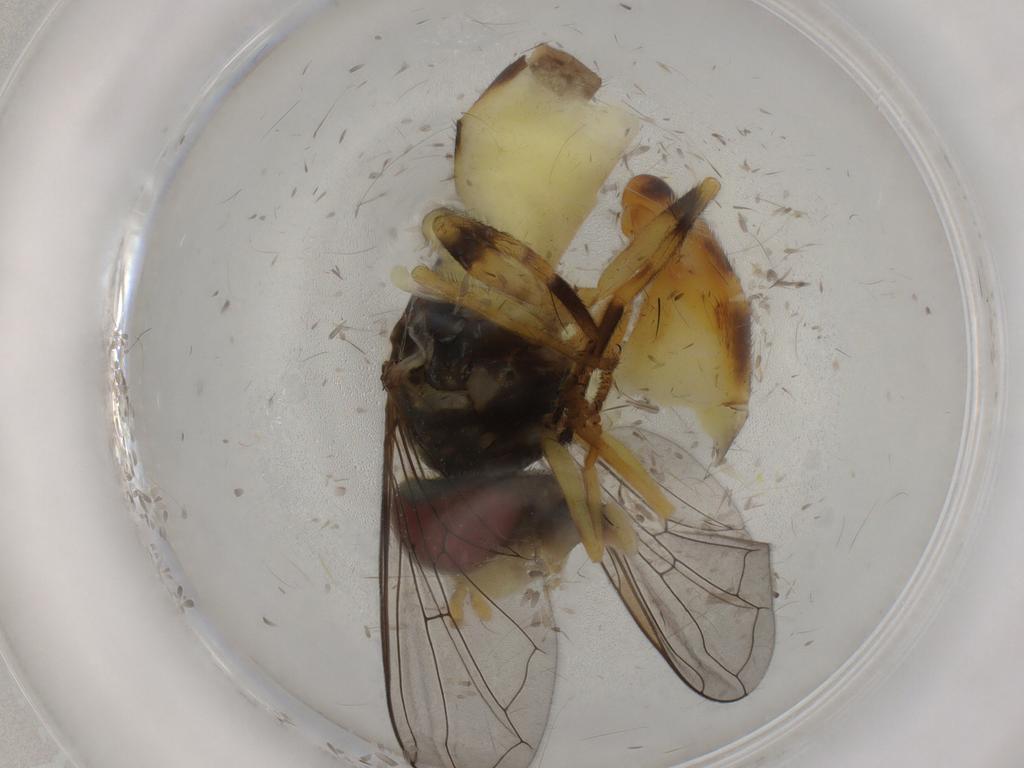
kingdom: Animalia
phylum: Arthropoda
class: Insecta
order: Diptera
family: Syrphidae
